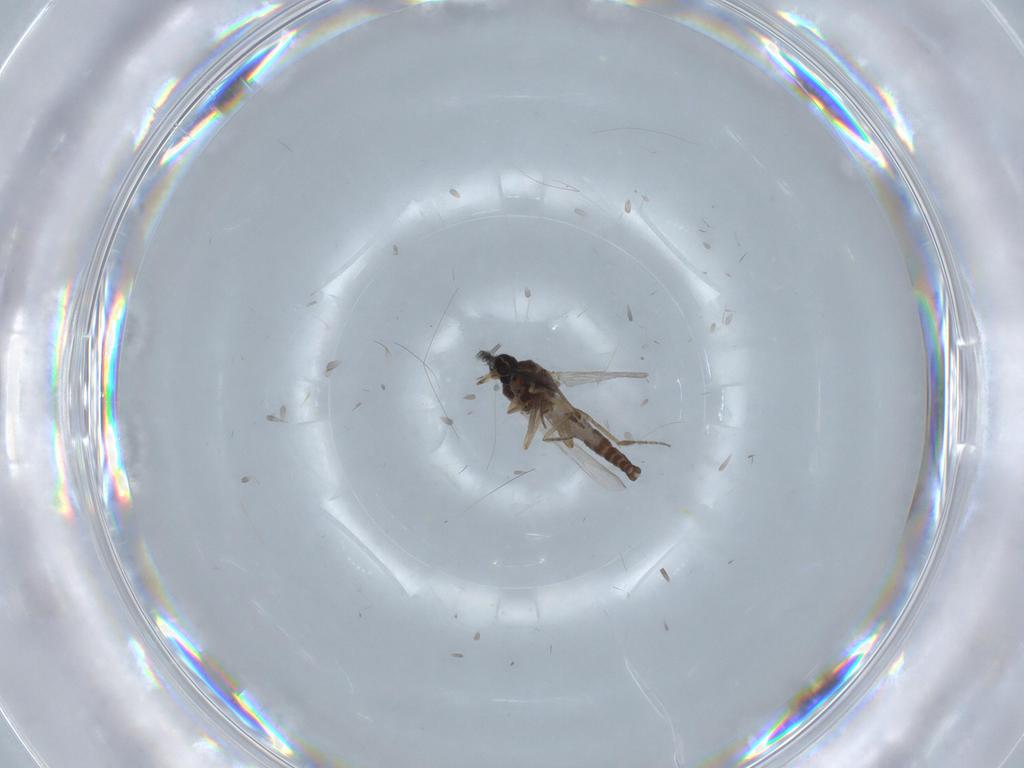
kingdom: Animalia
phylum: Arthropoda
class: Insecta
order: Diptera
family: Ceratopogonidae
